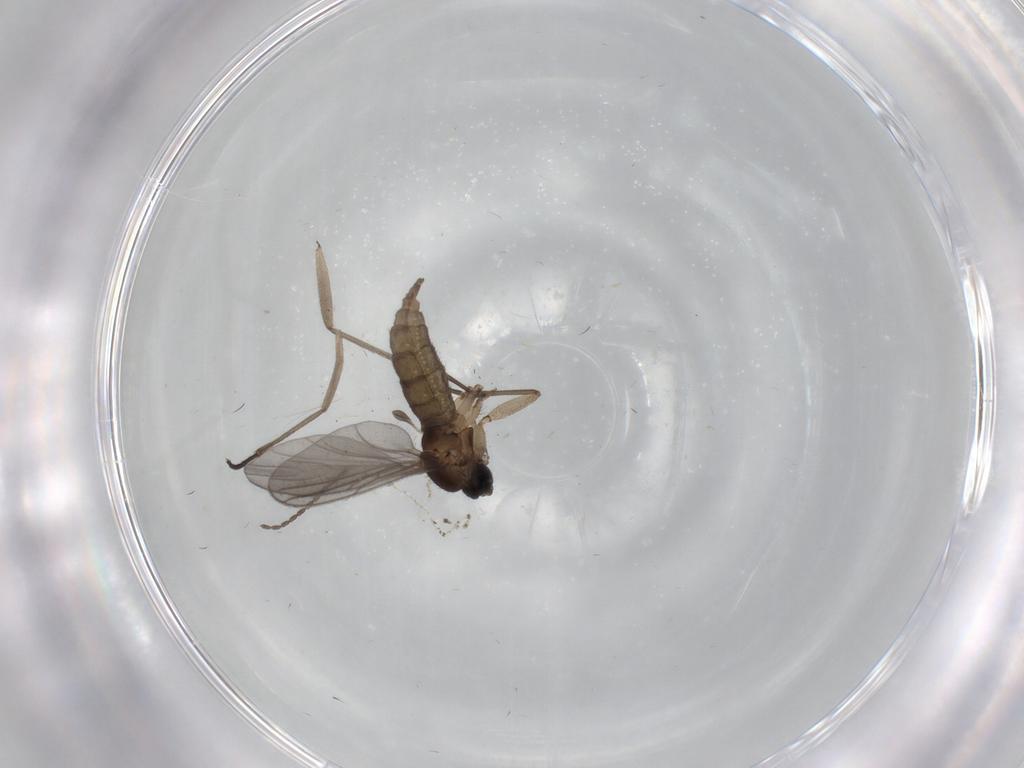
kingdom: Animalia
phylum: Arthropoda
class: Insecta
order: Diptera
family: Sciaridae
